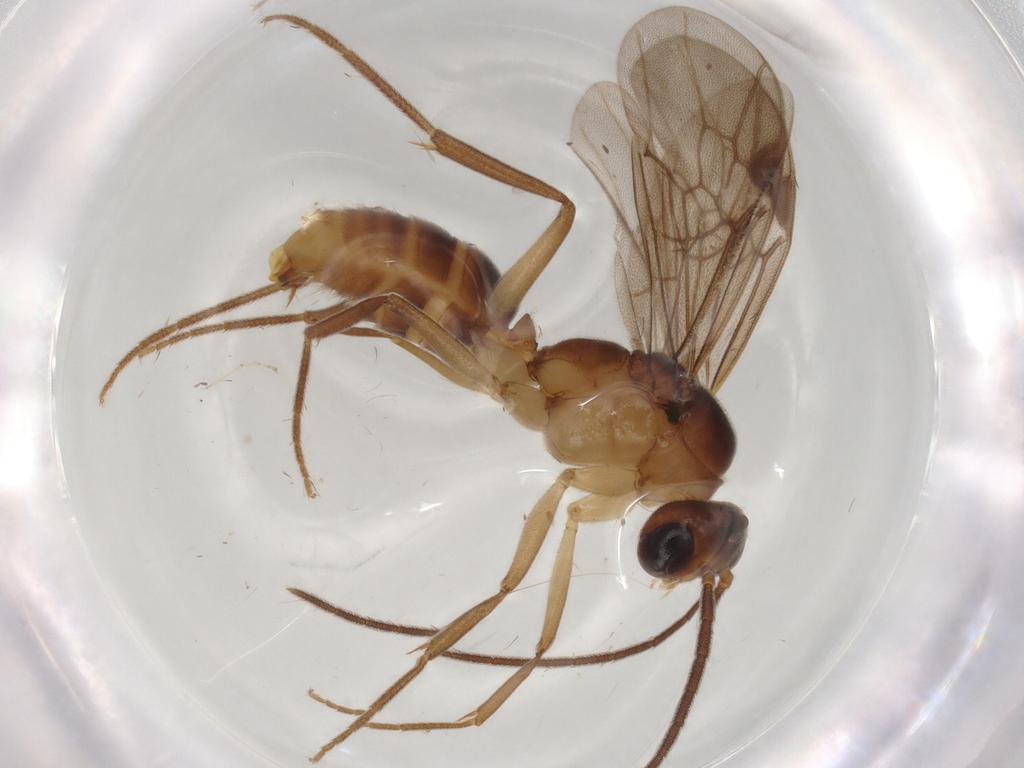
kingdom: Animalia
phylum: Arthropoda
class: Insecta
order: Hymenoptera
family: Formicidae
